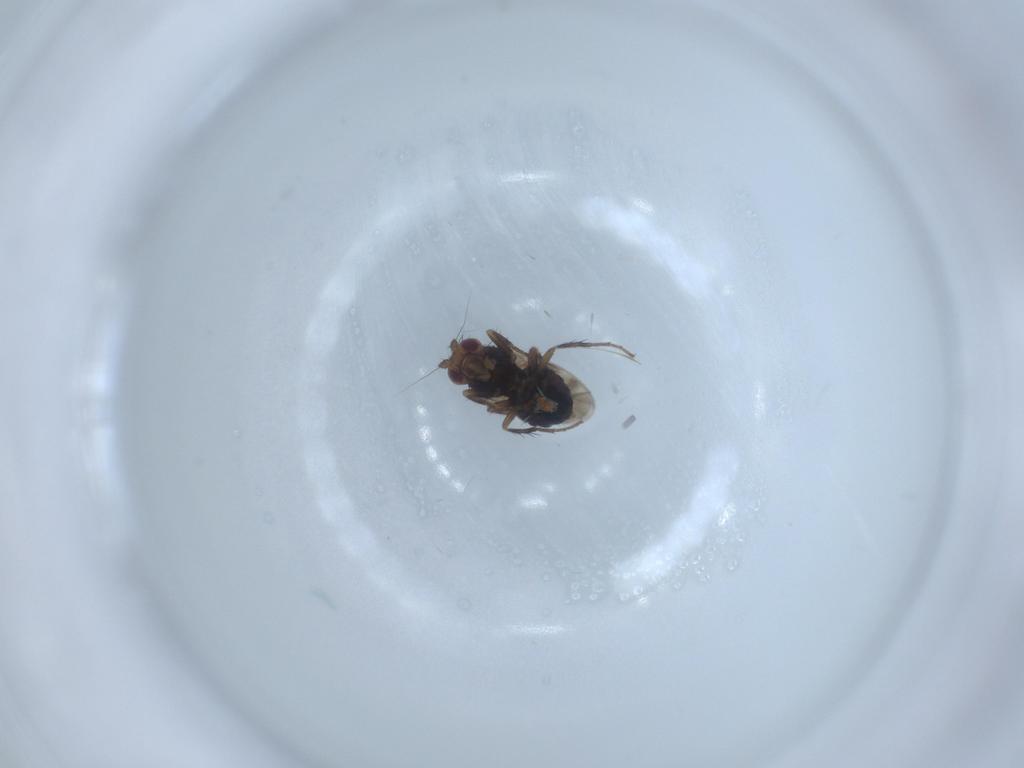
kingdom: Animalia
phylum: Arthropoda
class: Insecta
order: Diptera
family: Sphaeroceridae
